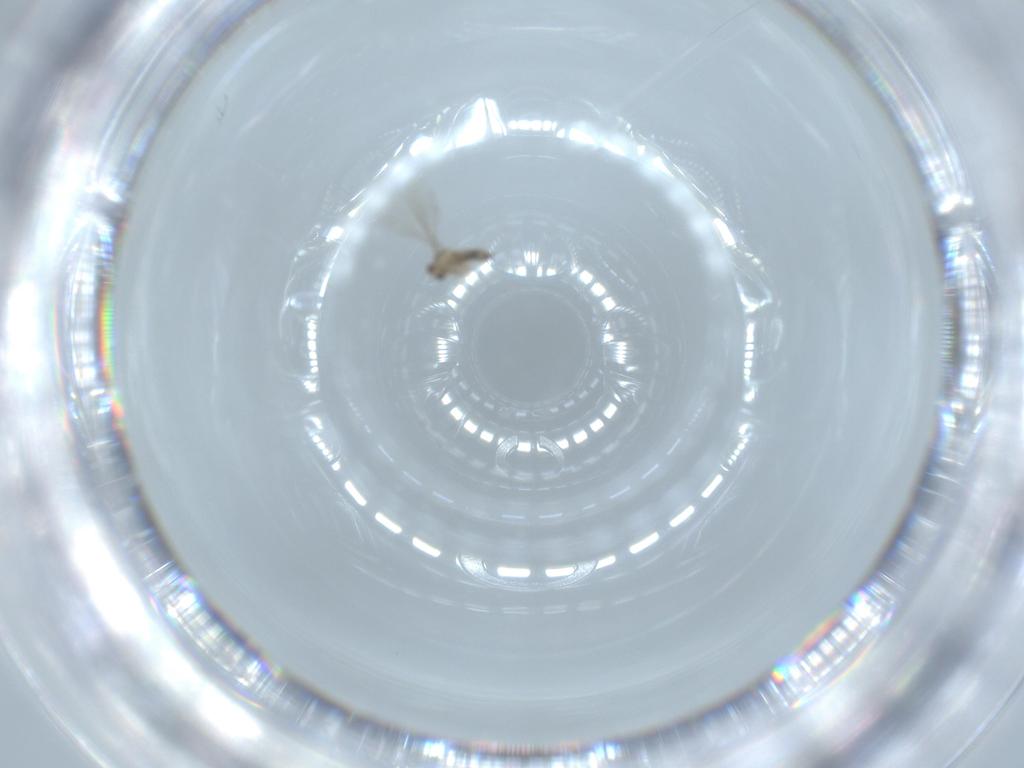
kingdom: Animalia
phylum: Arthropoda
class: Insecta
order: Diptera
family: Cecidomyiidae
